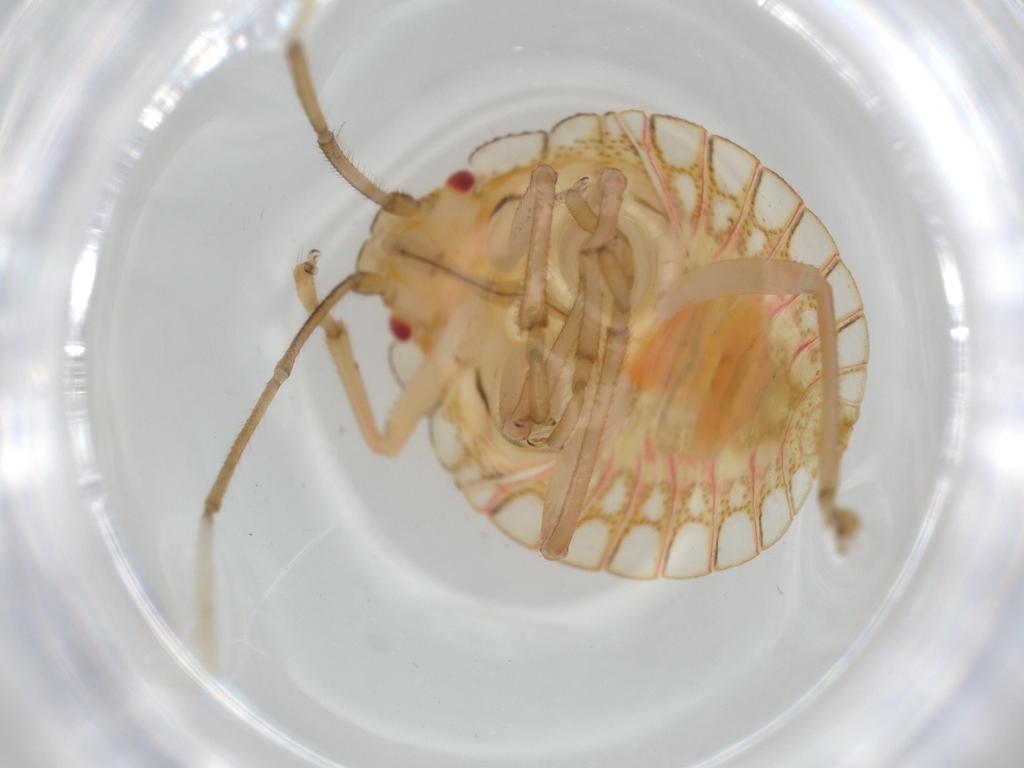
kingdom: Animalia
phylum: Arthropoda
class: Insecta
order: Hemiptera
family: Pentatomidae
